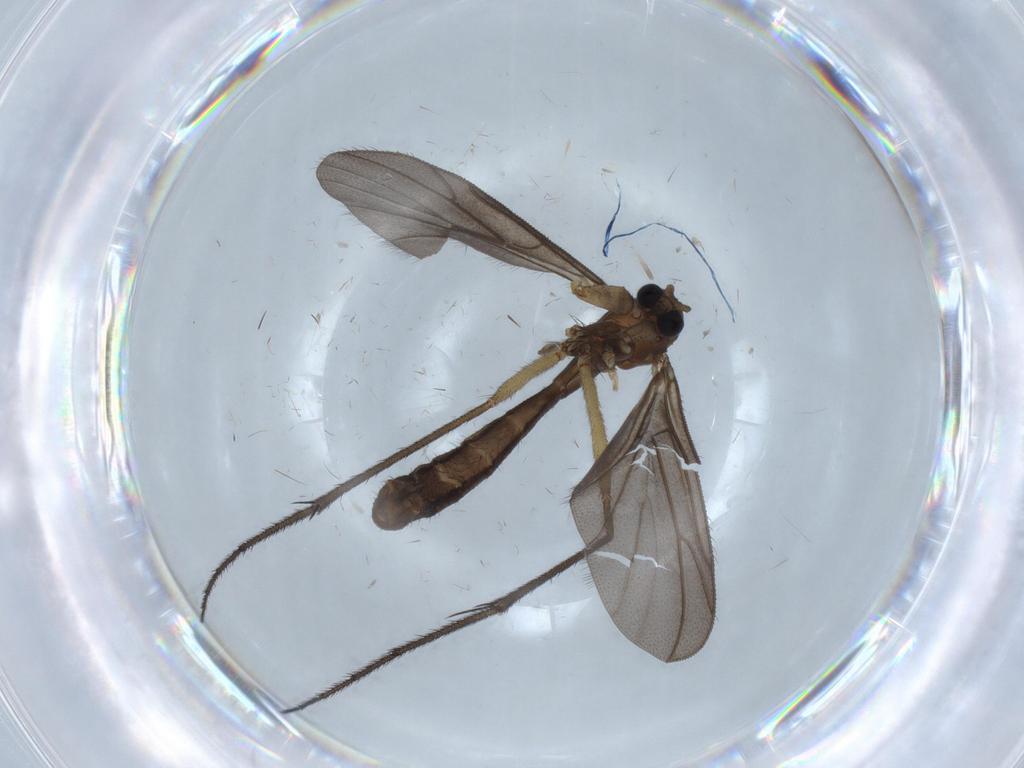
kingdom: Animalia
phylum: Arthropoda
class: Insecta
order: Diptera
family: Ditomyiidae
